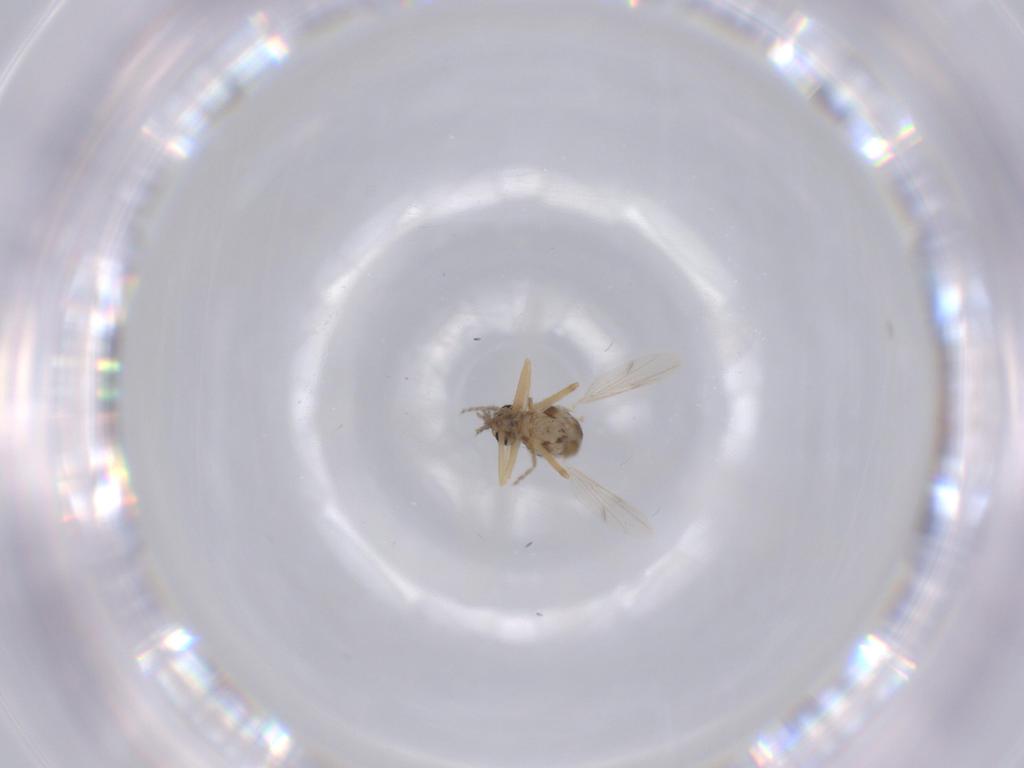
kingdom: Animalia
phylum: Arthropoda
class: Insecta
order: Diptera
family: Ceratopogonidae
